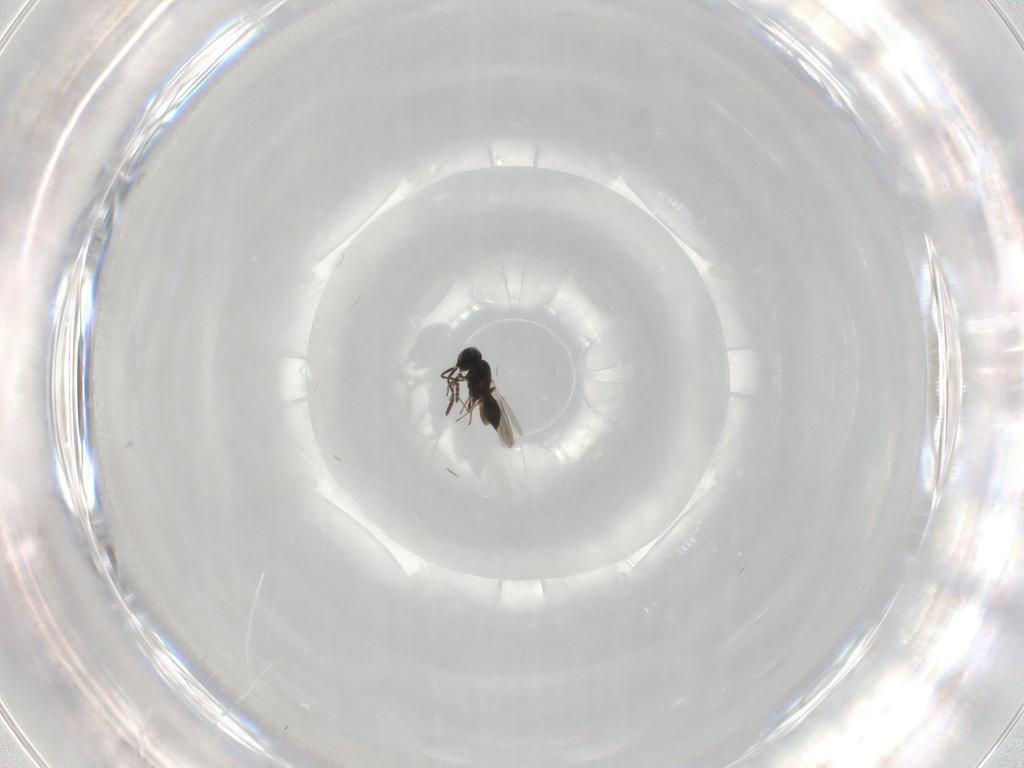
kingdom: Animalia
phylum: Arthropoda
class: Insecta
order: Hymenoptera
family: Scelionidae
